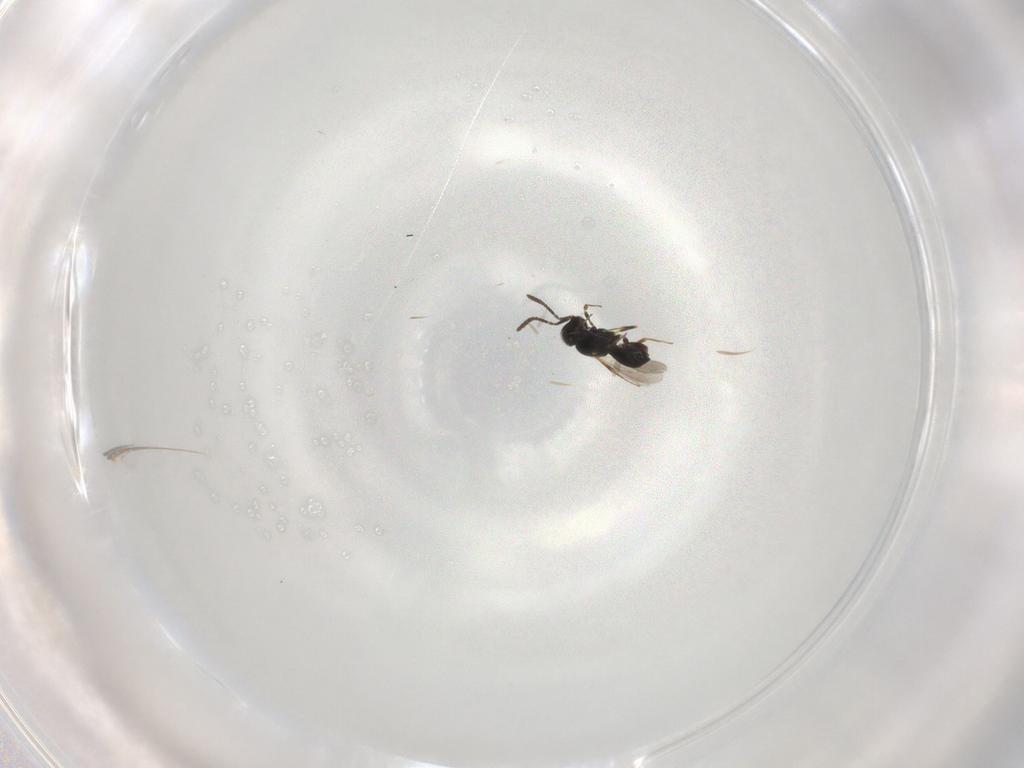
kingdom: Animalia
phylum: Arthropoda
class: Insecta
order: Hymenoptera
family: Scelionidae
